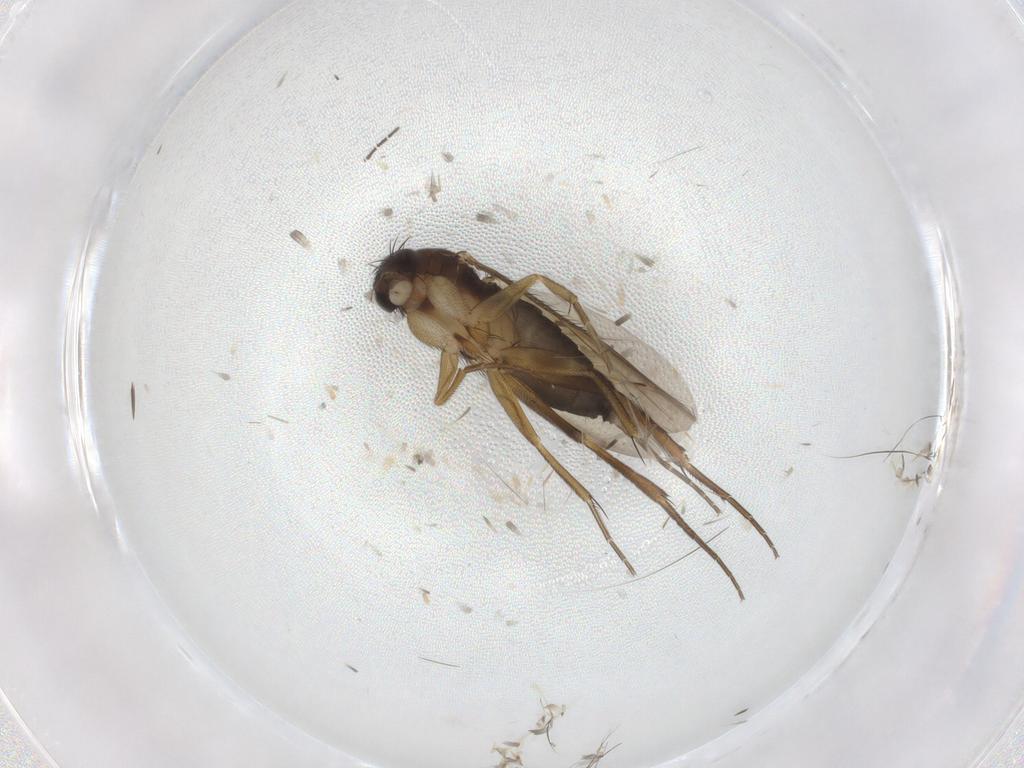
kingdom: Animalia
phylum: Arthropoda
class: Insecta
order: Diptera
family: Phoridae
